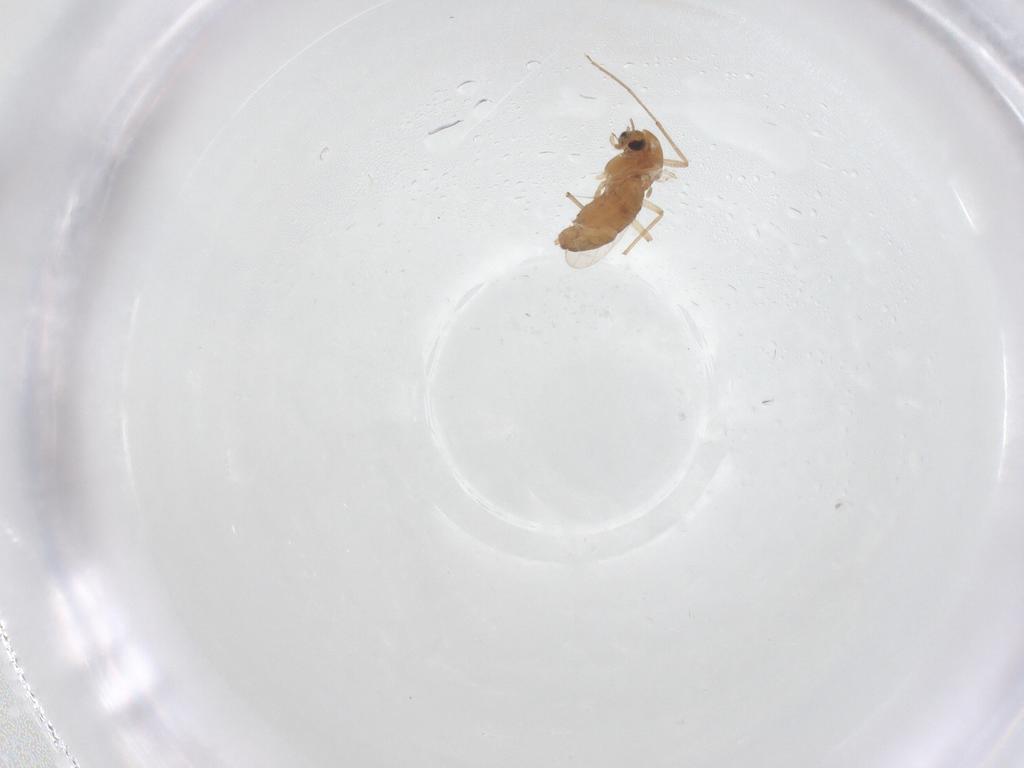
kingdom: Animalia
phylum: Arthropoda
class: Insecta
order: Diptera
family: Chironomidae
